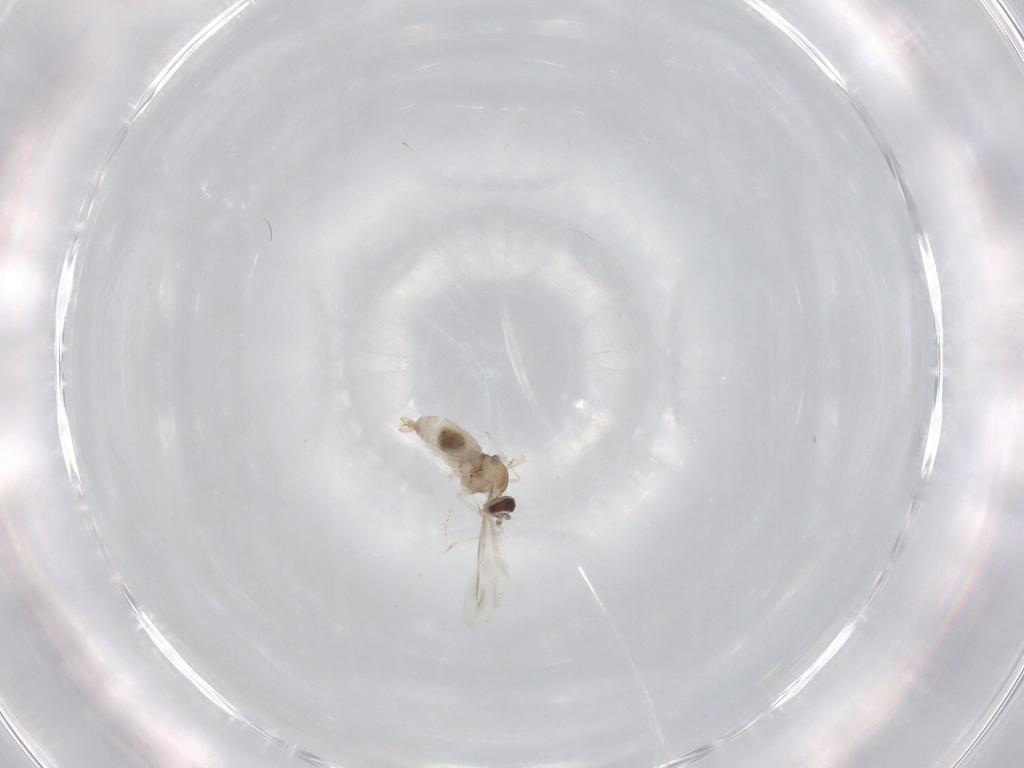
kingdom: Animalia
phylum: Arthropoda
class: Insecta
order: Diptera
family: Cecidomyiidae
